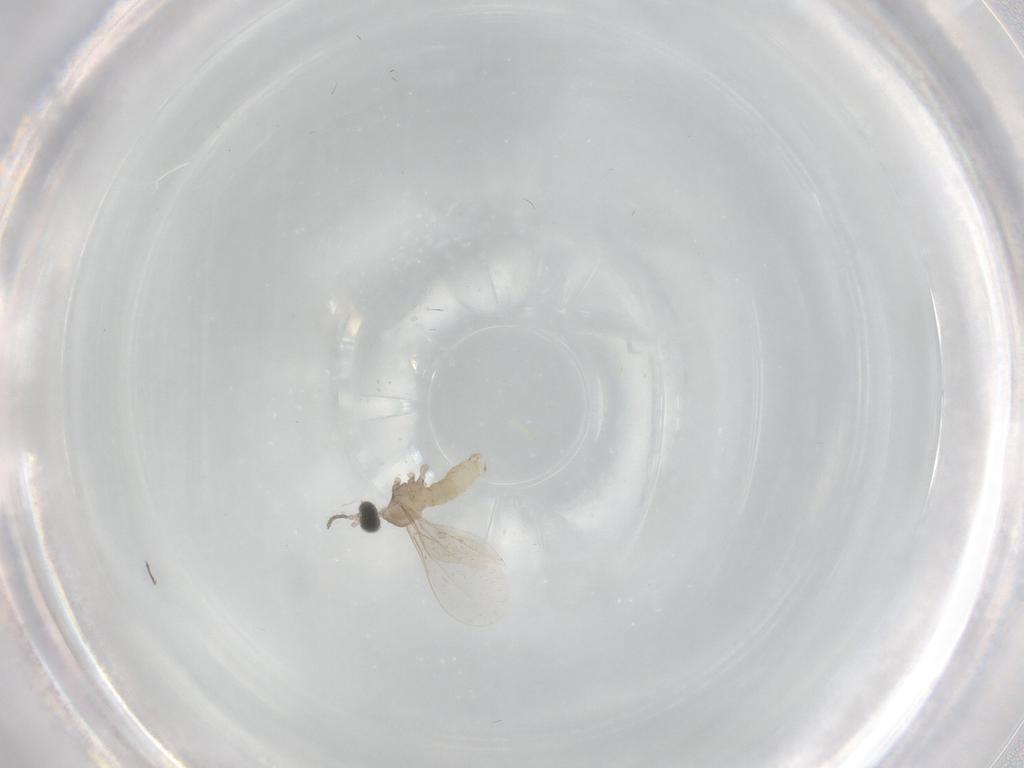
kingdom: Animalia
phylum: Arthropoda
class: Insecta
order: Diptera
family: Cecidomyiidae
